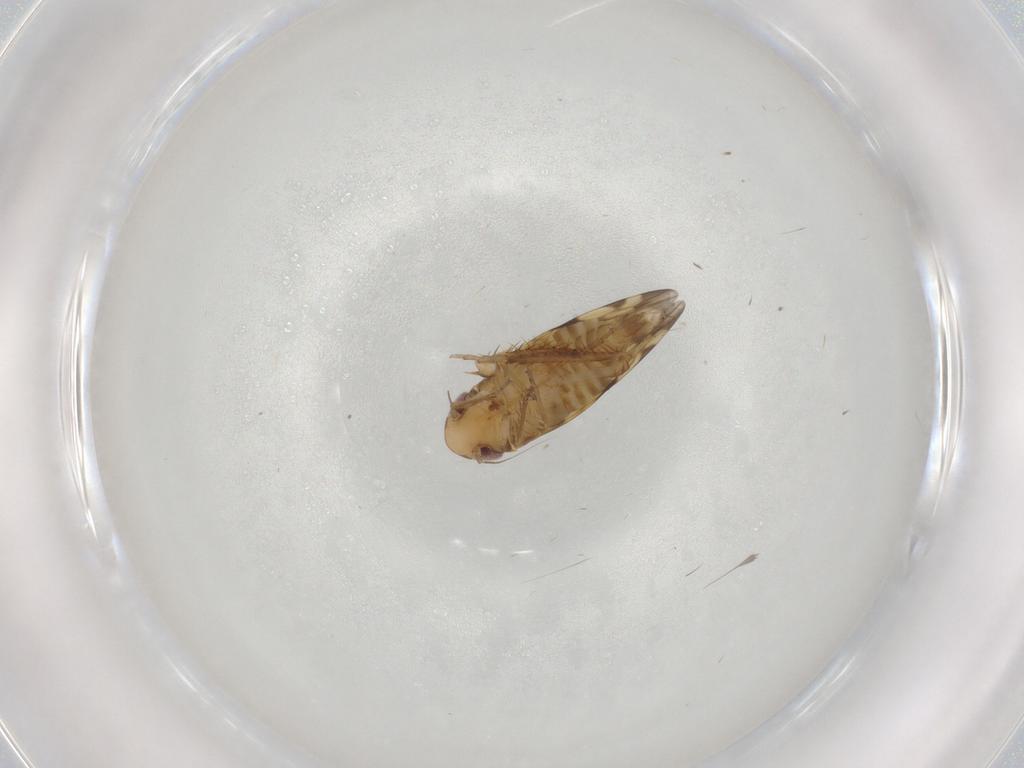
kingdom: Animalia
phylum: Arthropoda
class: Insecta
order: Hemiptera
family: Cicadellidae
